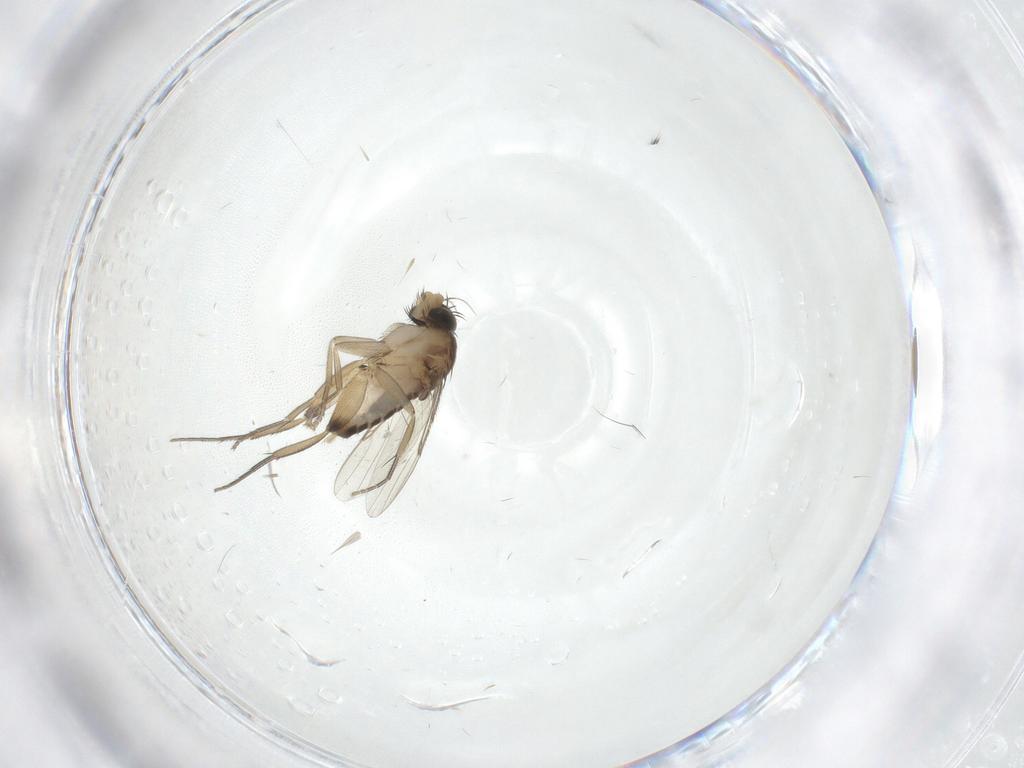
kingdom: Animalia
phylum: Arthropoda
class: Insecta
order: Diptera
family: Phoridae
